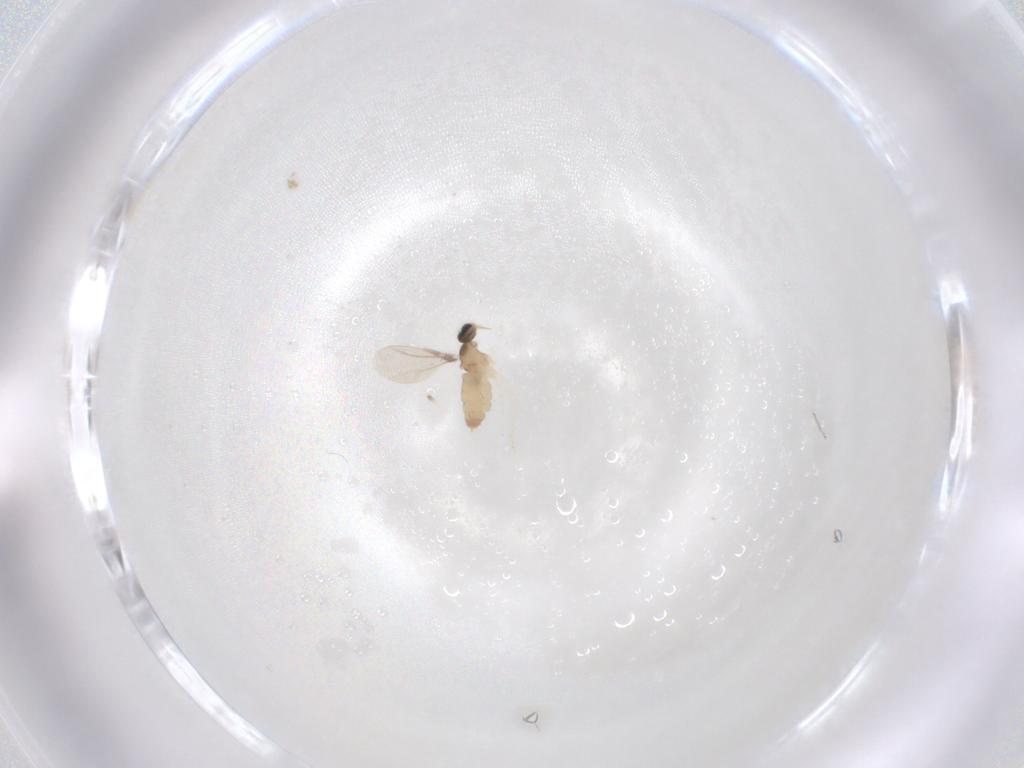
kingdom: Animalia
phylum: Arthropoda
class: Insecta
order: Diptera
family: Cecidomyiidae
